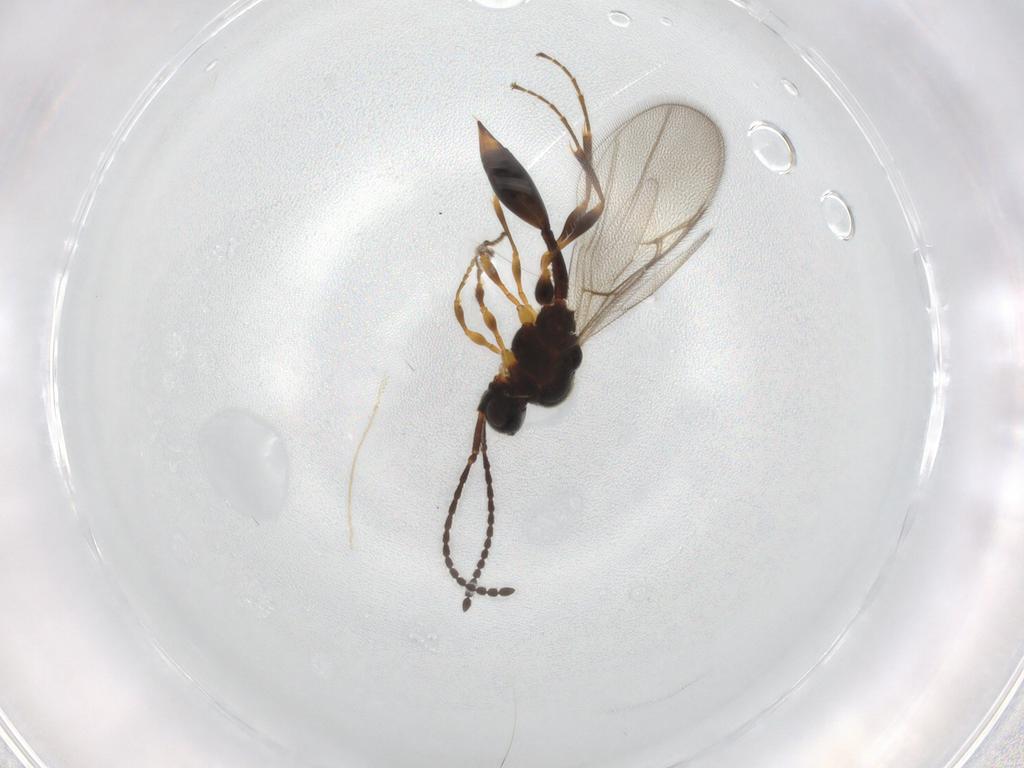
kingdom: Animalia
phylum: Arthropoda
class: Insecta
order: Hymenoptera
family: Diapriidae
